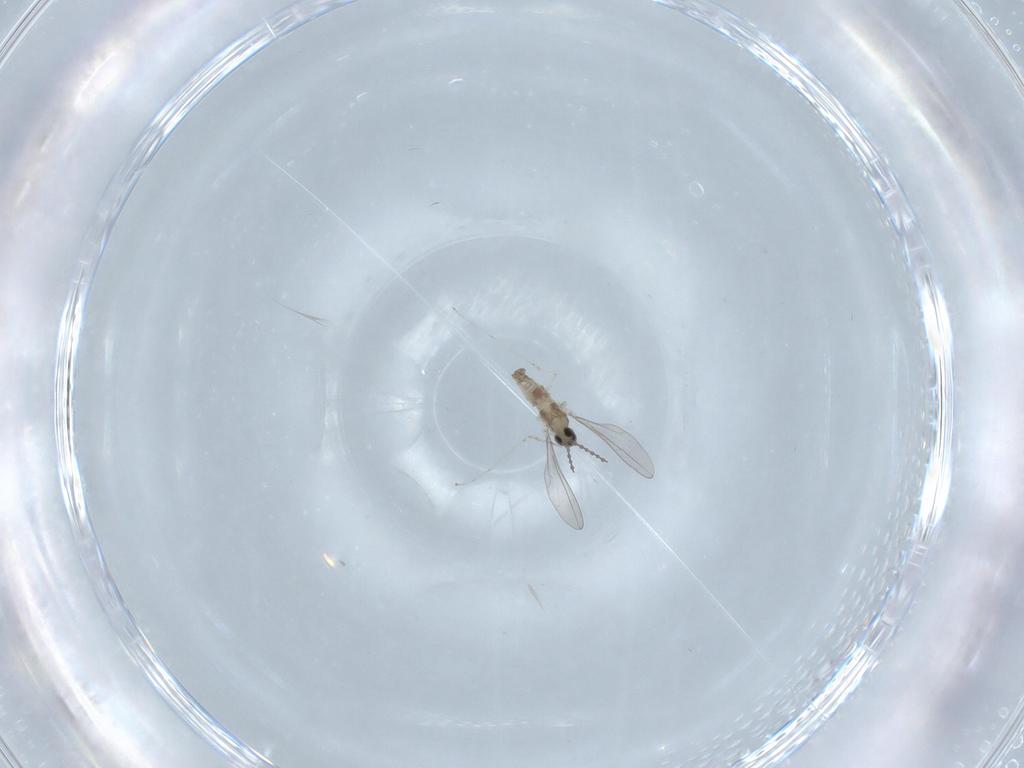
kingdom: Animalia
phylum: Arthropoda
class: Insecta
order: Diptera
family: Cecidomyiidae
